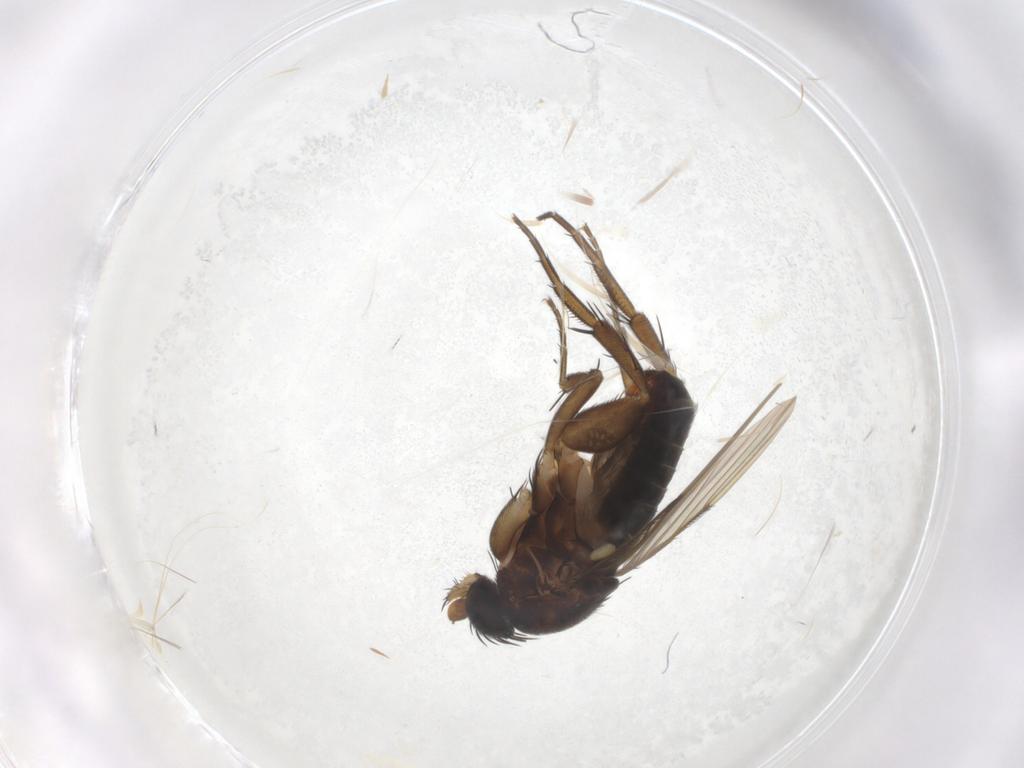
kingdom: Animalia
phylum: Arthropoda
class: Insecta
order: Diptera
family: Phoridae
